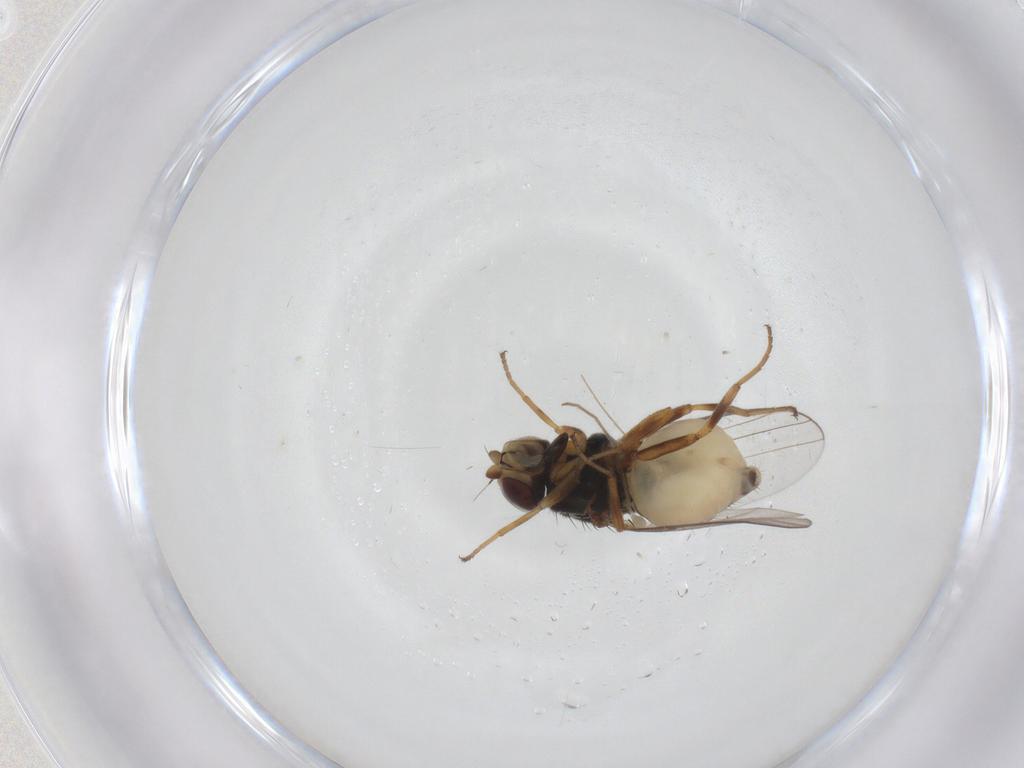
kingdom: Animalia
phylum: Arthropoda
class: Insecta
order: Diptera
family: Chloropidae
